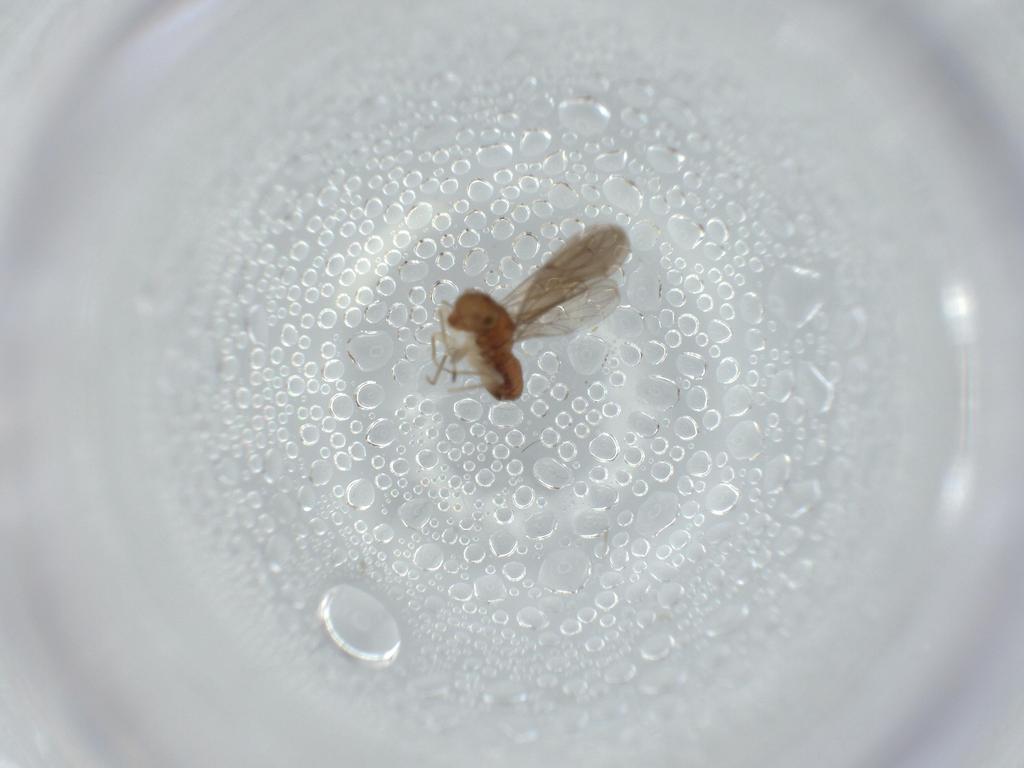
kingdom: Animalia
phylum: Arthropoda
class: Insecta
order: Psocodea
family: Ectopsocidae
